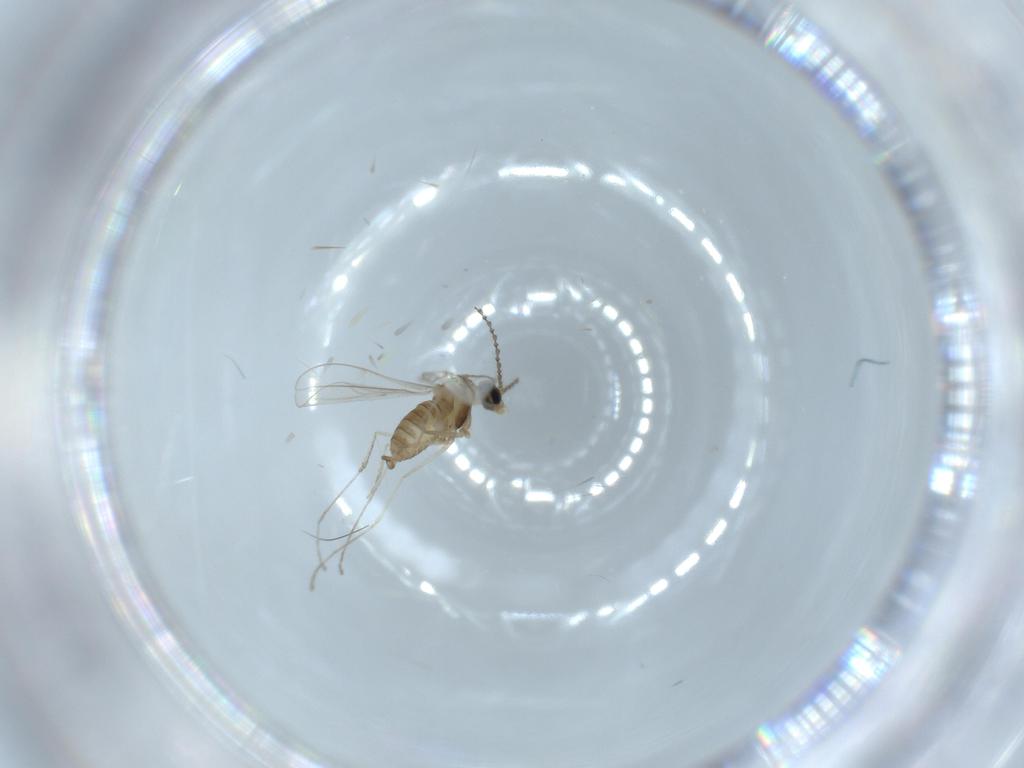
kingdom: Animalia
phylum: Arthropoda
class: Insecta
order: Diptera
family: Cecidomyiidae
